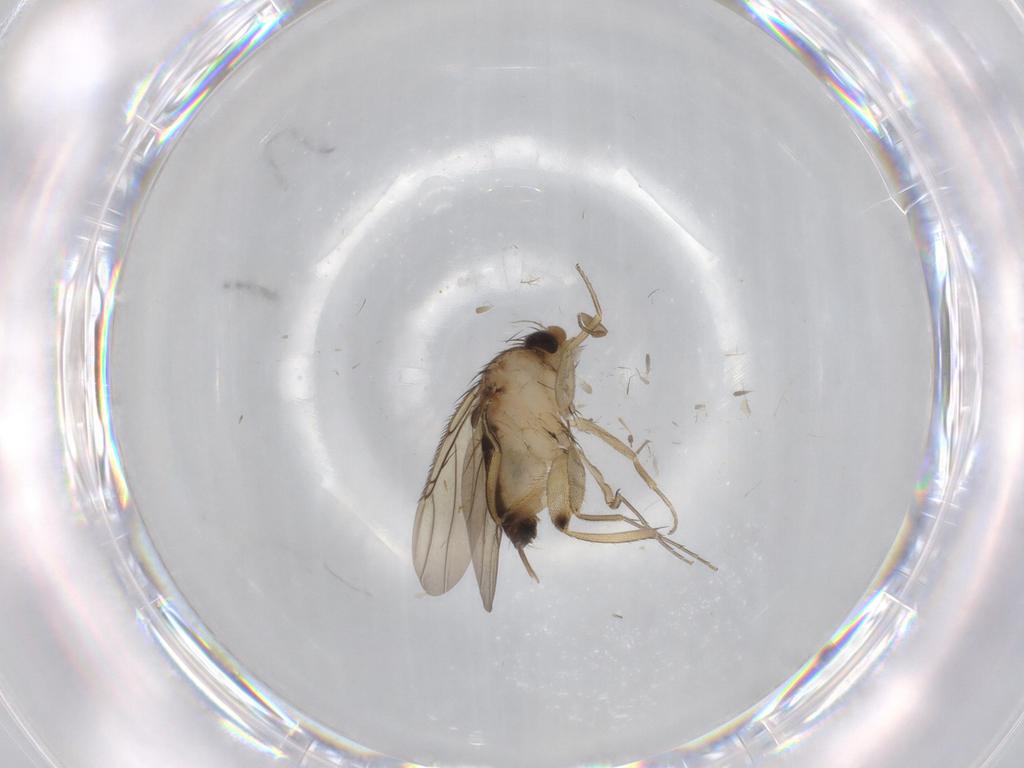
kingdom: Animalia
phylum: Arthropoda
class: Insecta
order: Diptera
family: Phoridae
